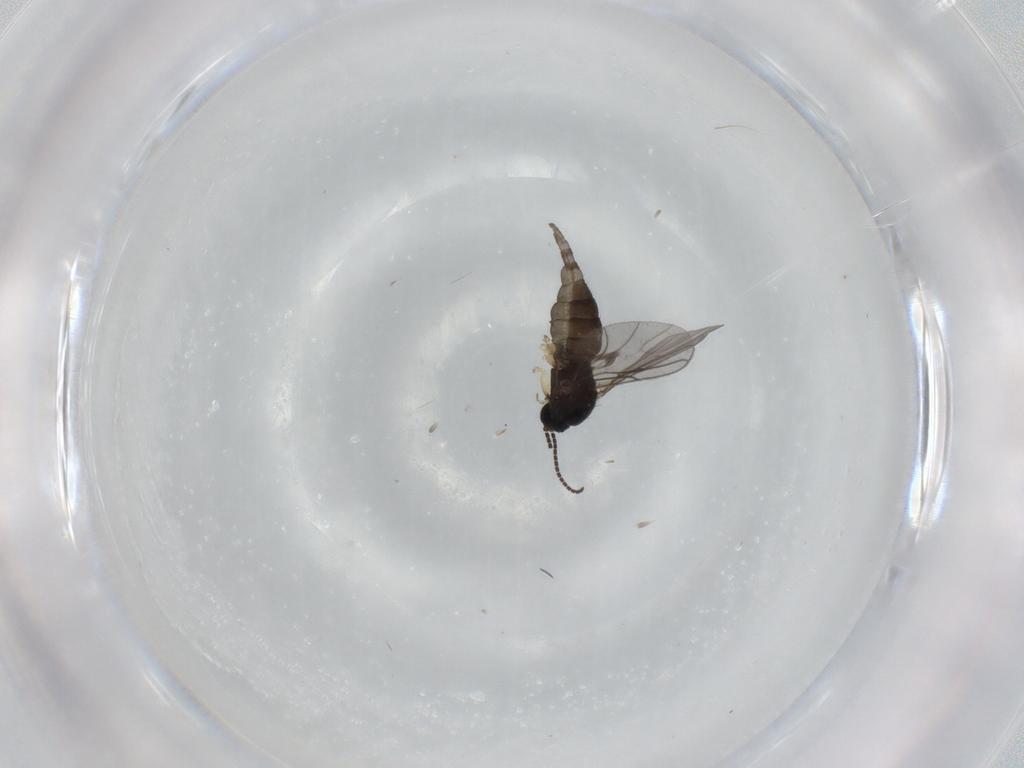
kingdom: Animalia
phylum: Arthropoda
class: Insecta
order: Diptera
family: Sciaridae
